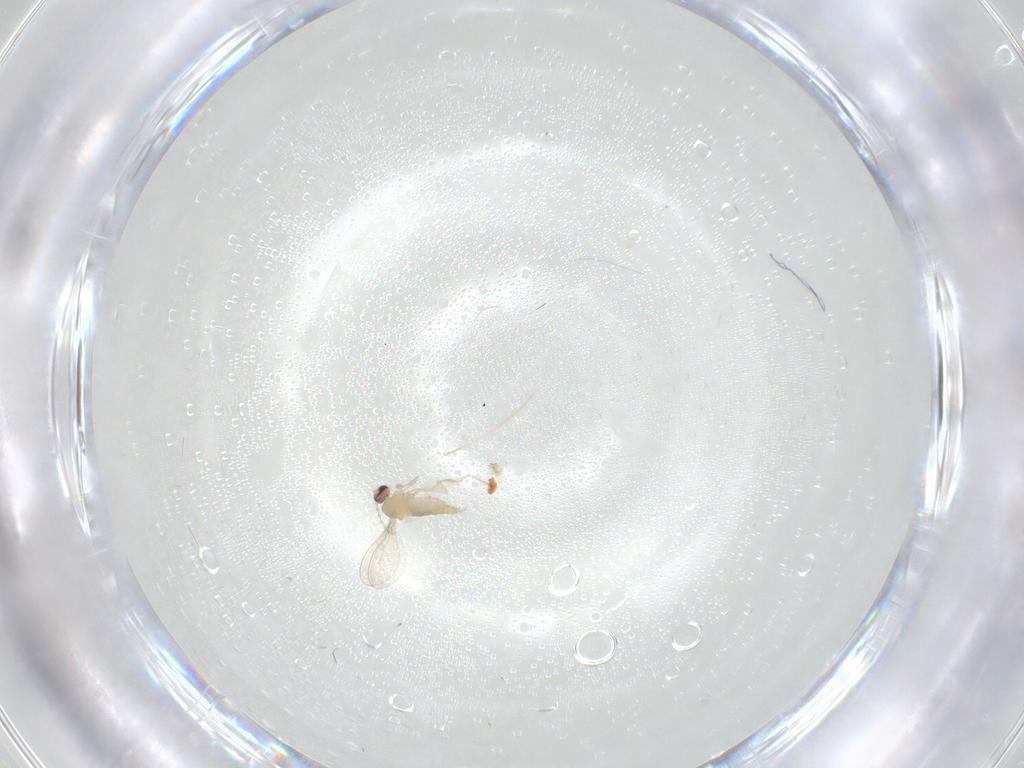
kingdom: Animalia
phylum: Arthropoda
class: Insecta
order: Diptera
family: Cecidomyiidae
